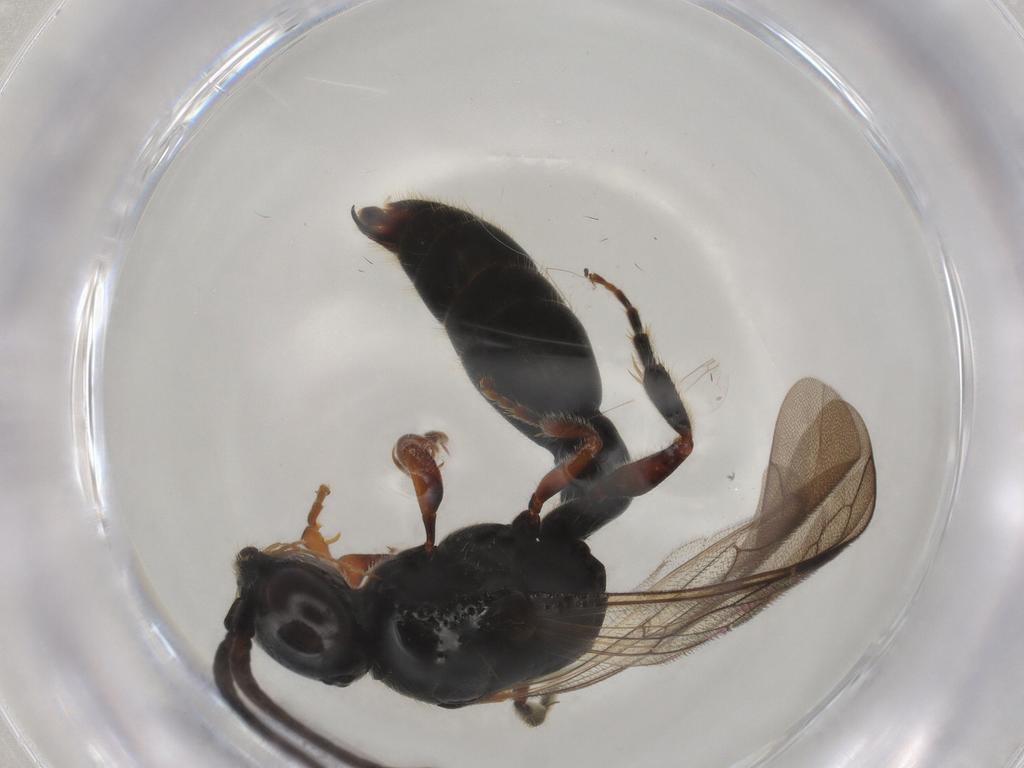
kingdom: Animalia
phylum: Arthropoda
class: Insecta
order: Hymenoptera
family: Tiphiidae
